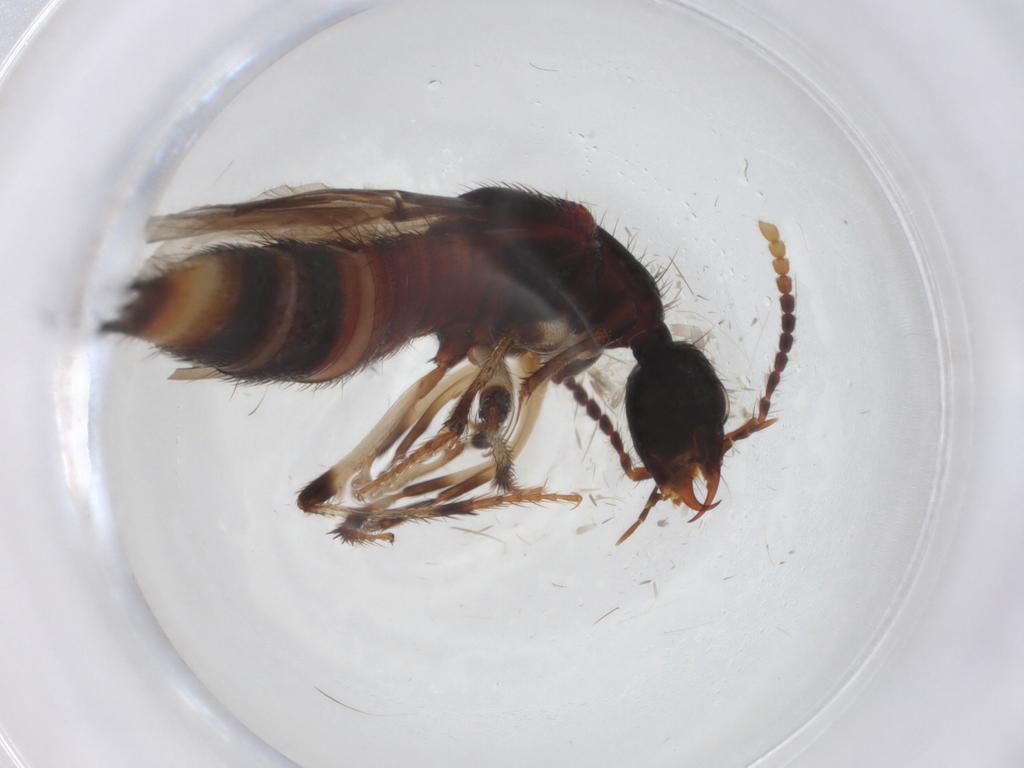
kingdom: Animalia
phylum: Arthropoda
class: Insecta
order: Coleoptera
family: Staphylinidae
